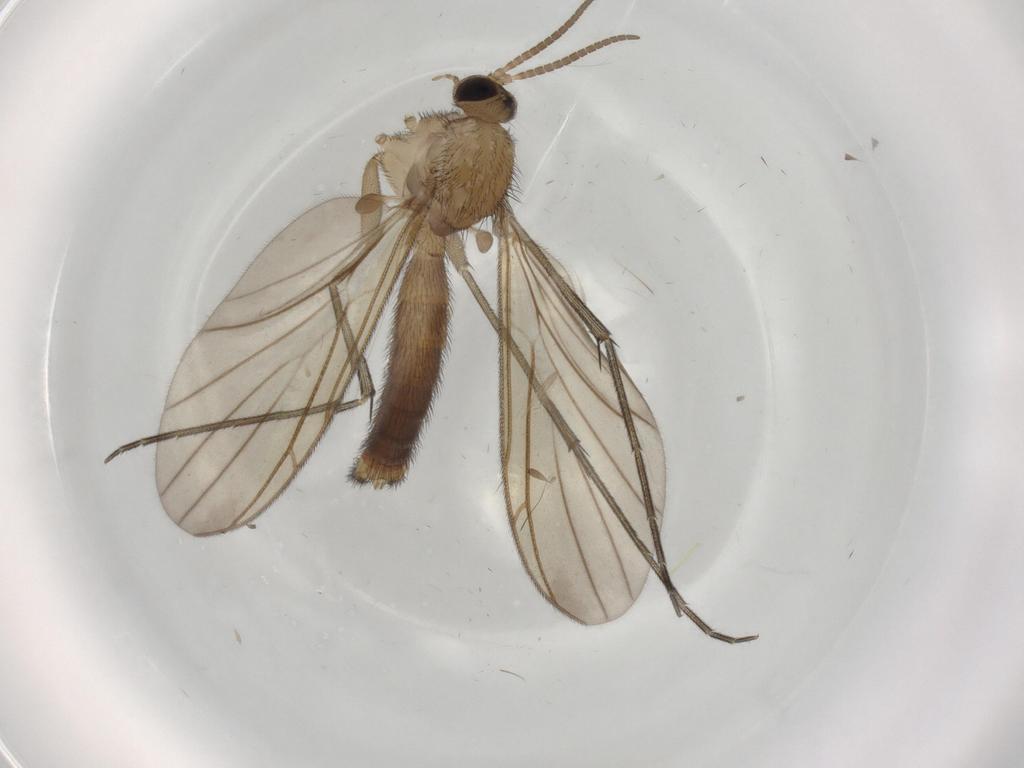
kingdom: Animalia
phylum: Arthropoda
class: Insecta
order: Diptera
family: Keroplatidae
